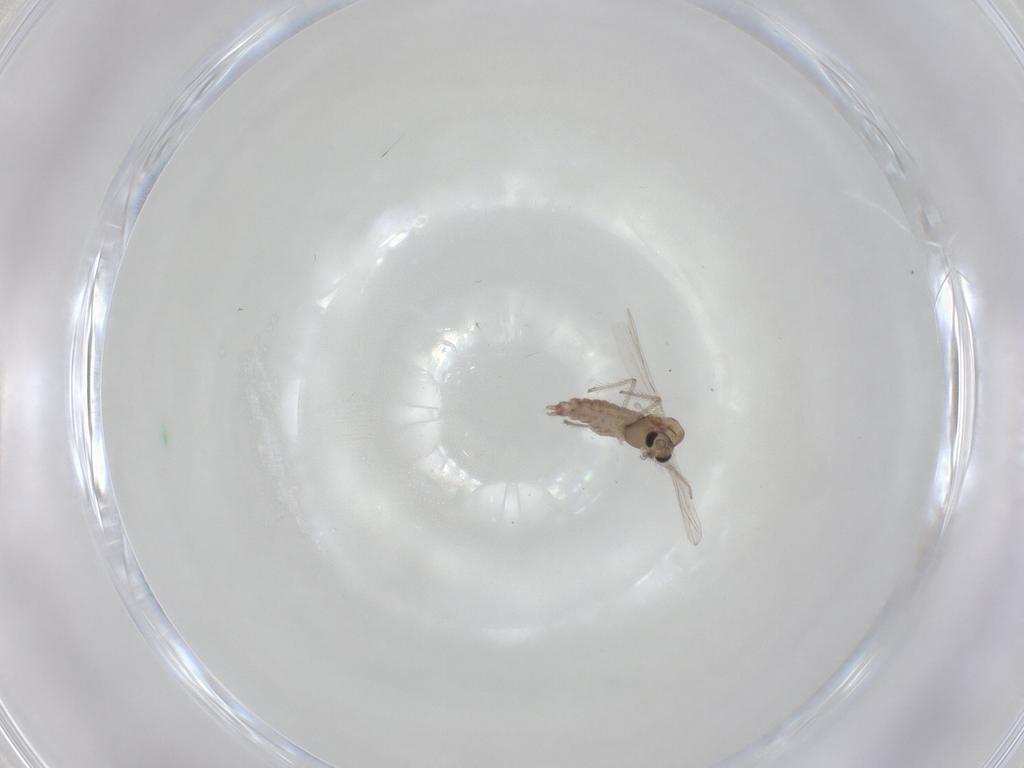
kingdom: Animalia
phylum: Arthropoda
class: Insecta
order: Diptera
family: Chironomidae
